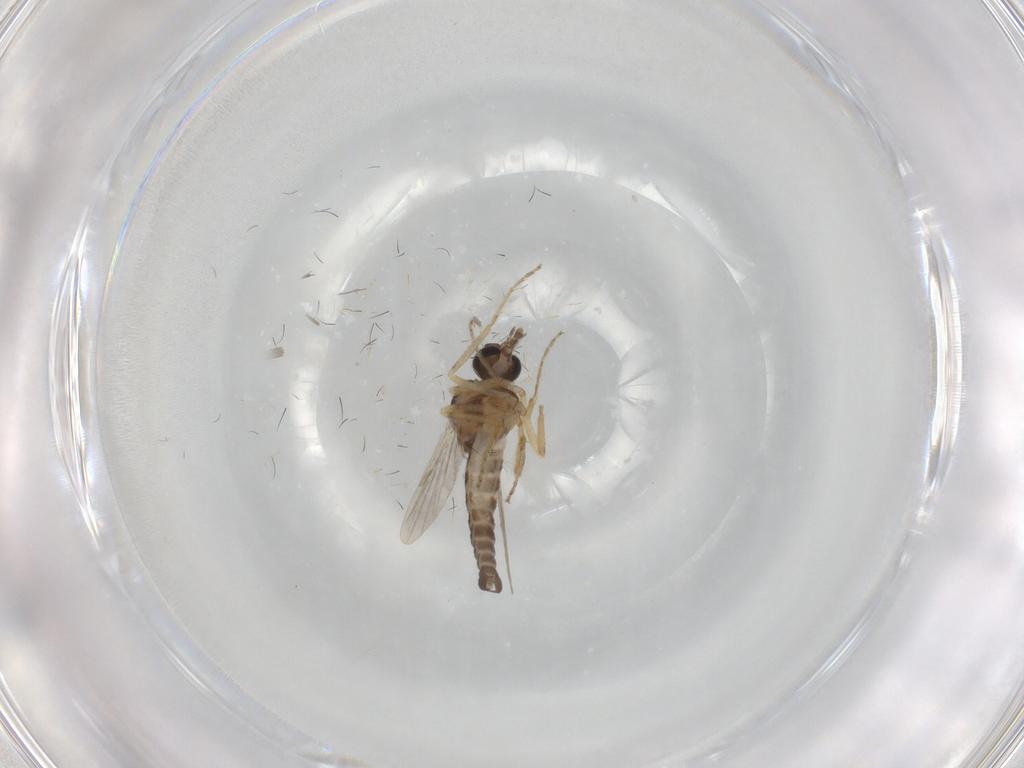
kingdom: Animalia
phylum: Arthropoda
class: Insecta
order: Diptera
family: Ceratopogonidae
